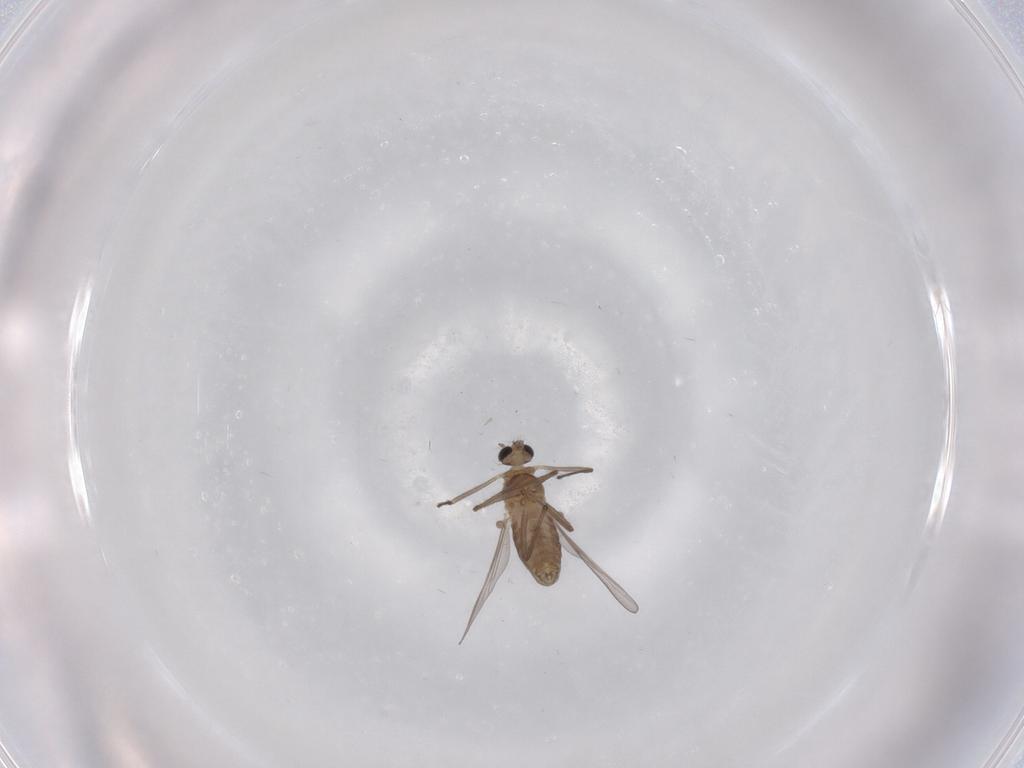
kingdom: Animalia
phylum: Arthropoda
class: Insecta
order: Diptera
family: Chironomidae
